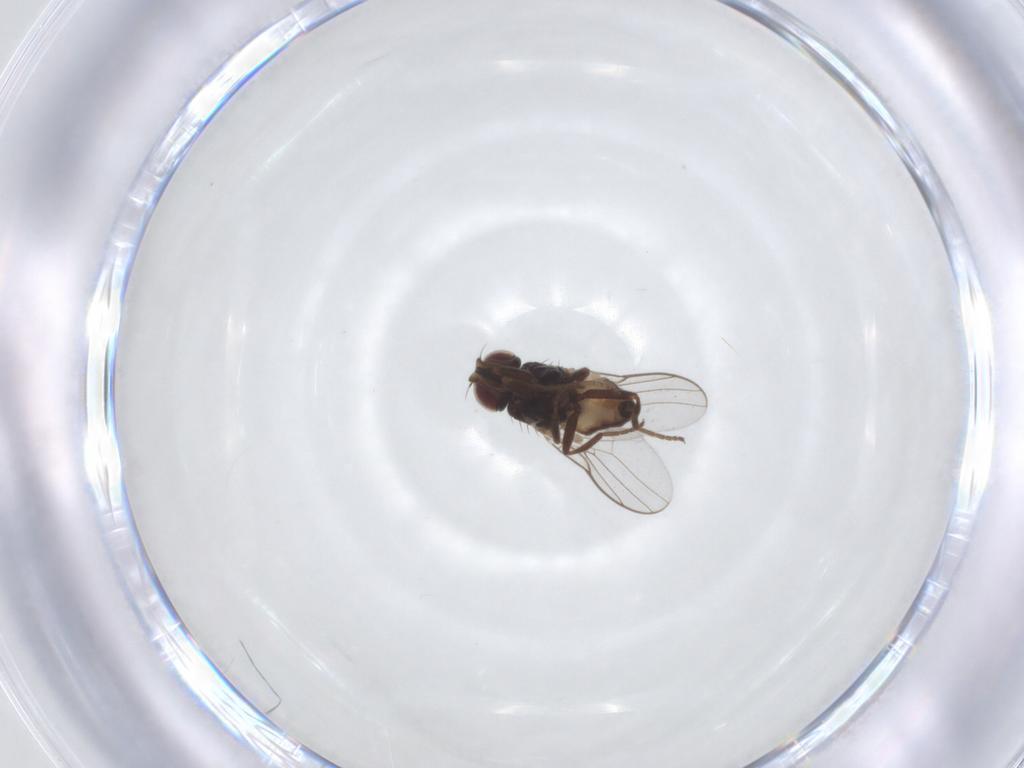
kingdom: Animalia
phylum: Arthropoda
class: Insecta
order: Diptera
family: Chloropidae
